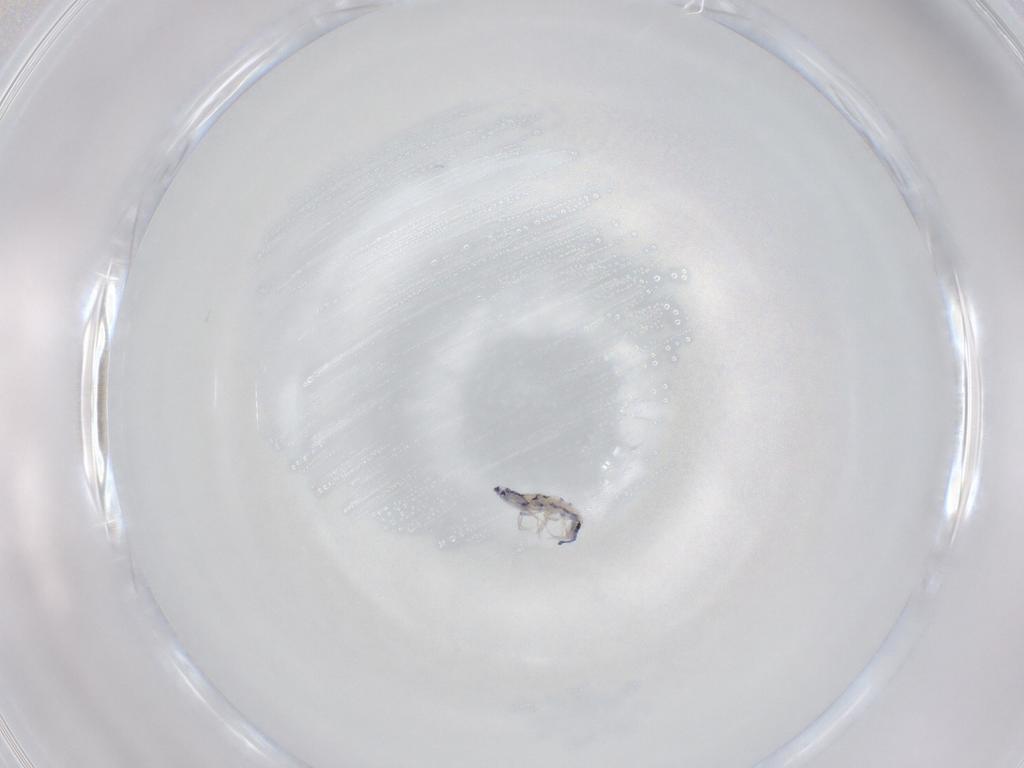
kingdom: Animalia
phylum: Arthropoda
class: Collembola
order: Entomobryomorpha
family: Entomobryidae
